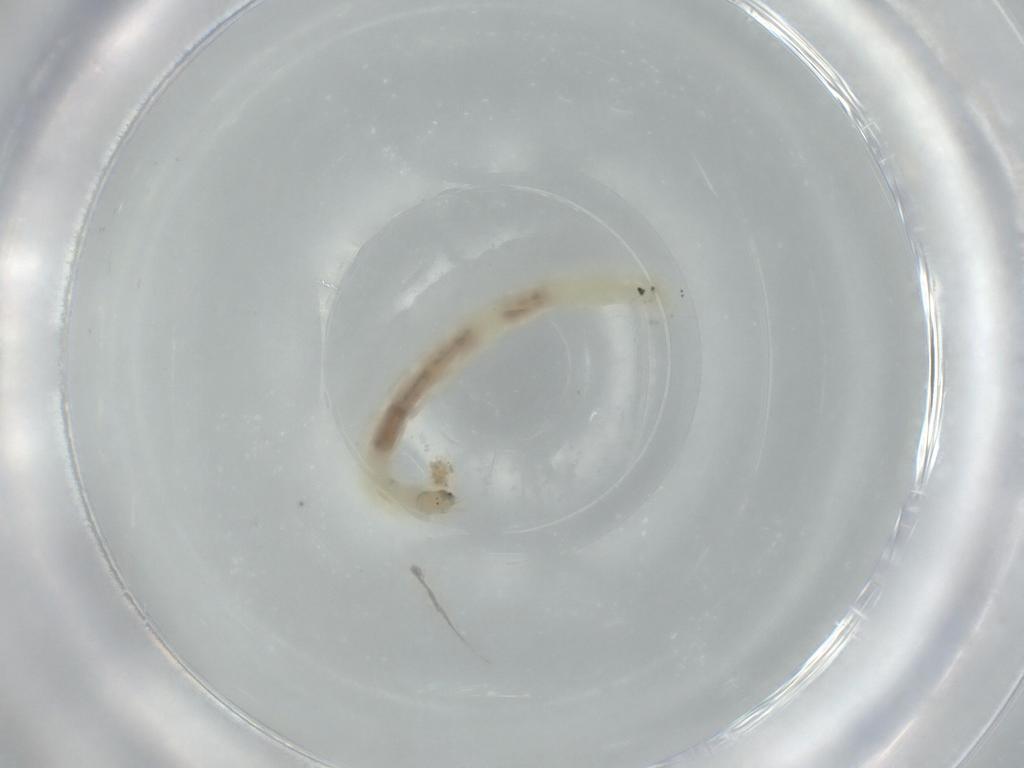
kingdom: Animalia
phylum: Arthropoda
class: Insecta
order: Diptera
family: Chironomidae
